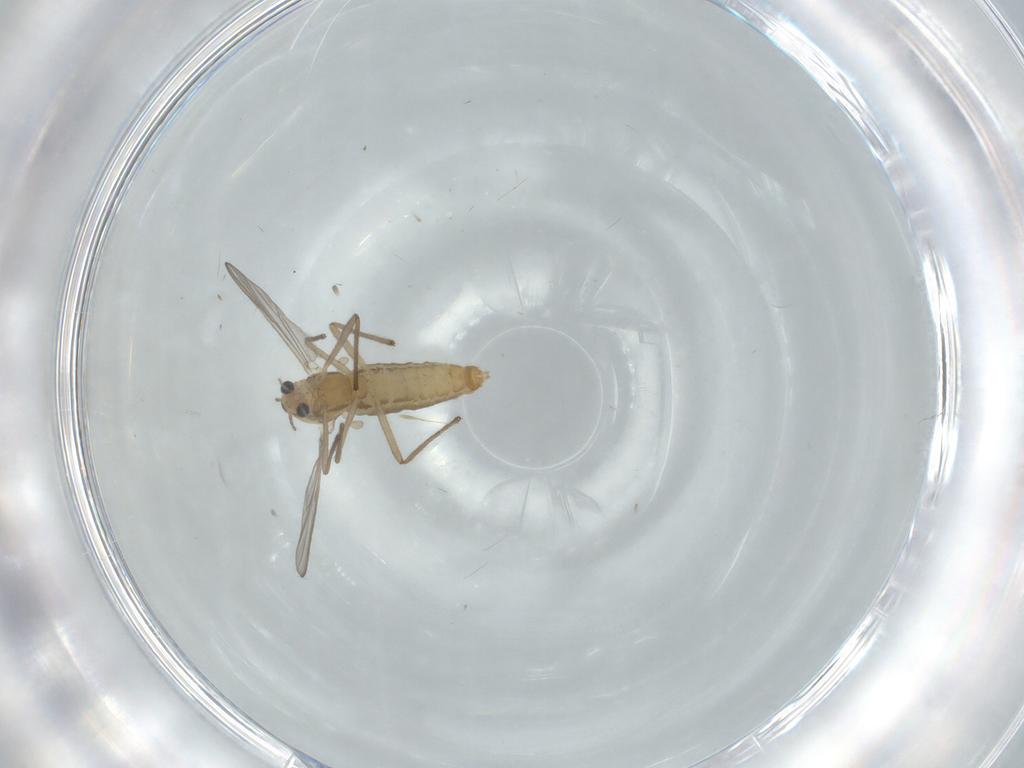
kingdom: Animalia
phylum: Arthropoda
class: Insecta
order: Diptera
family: Chironomidae
